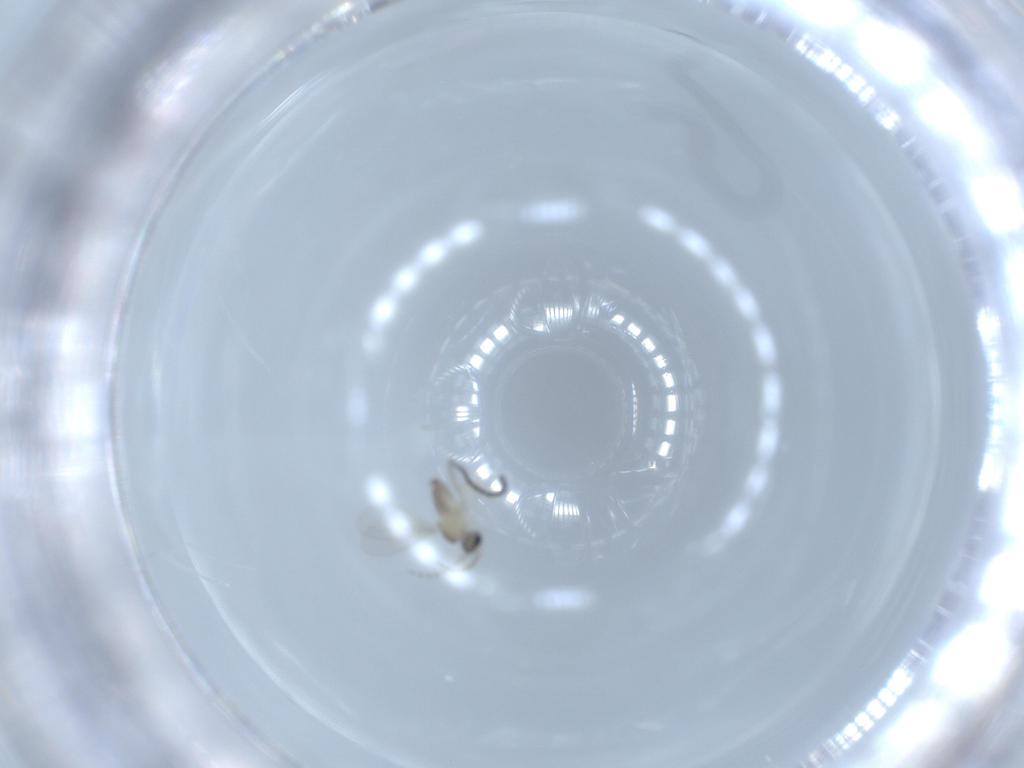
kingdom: Animalia
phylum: Arthropoda
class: Insecta
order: Diptera
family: Cecidomyiidae
